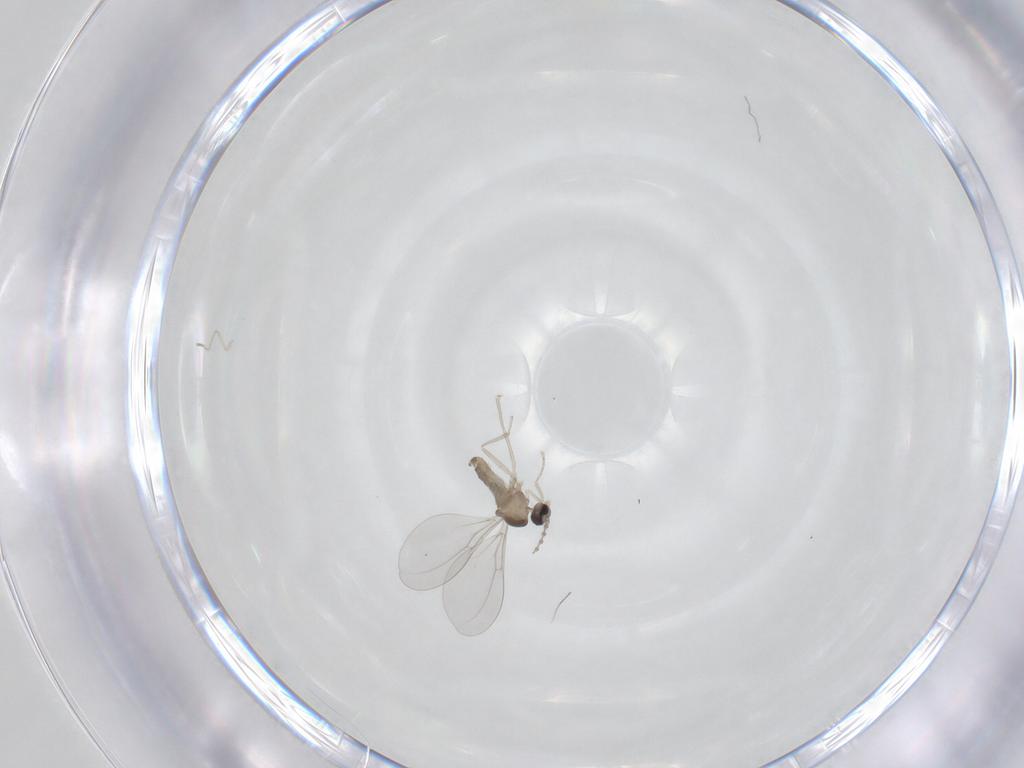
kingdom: Animalia
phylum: Arthropoda
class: Insecta
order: Diptera
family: Cecidomyiidae
